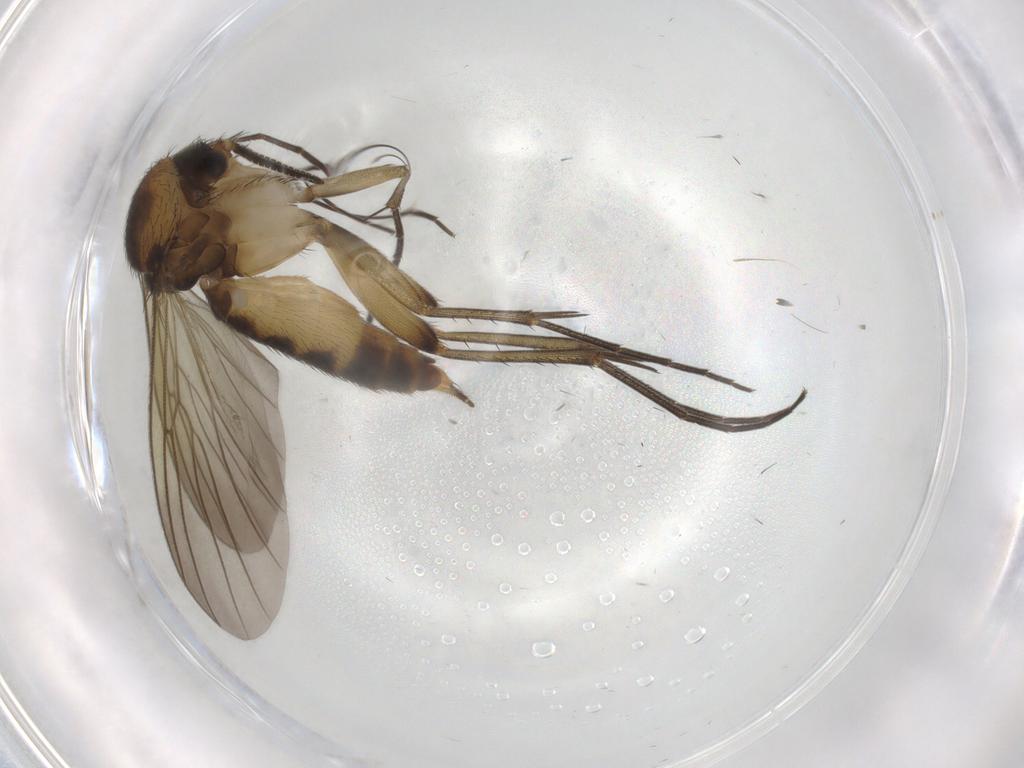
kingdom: Animalia
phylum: Arthropoda
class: Insecta
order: Diptera
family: Mycetophilidae
